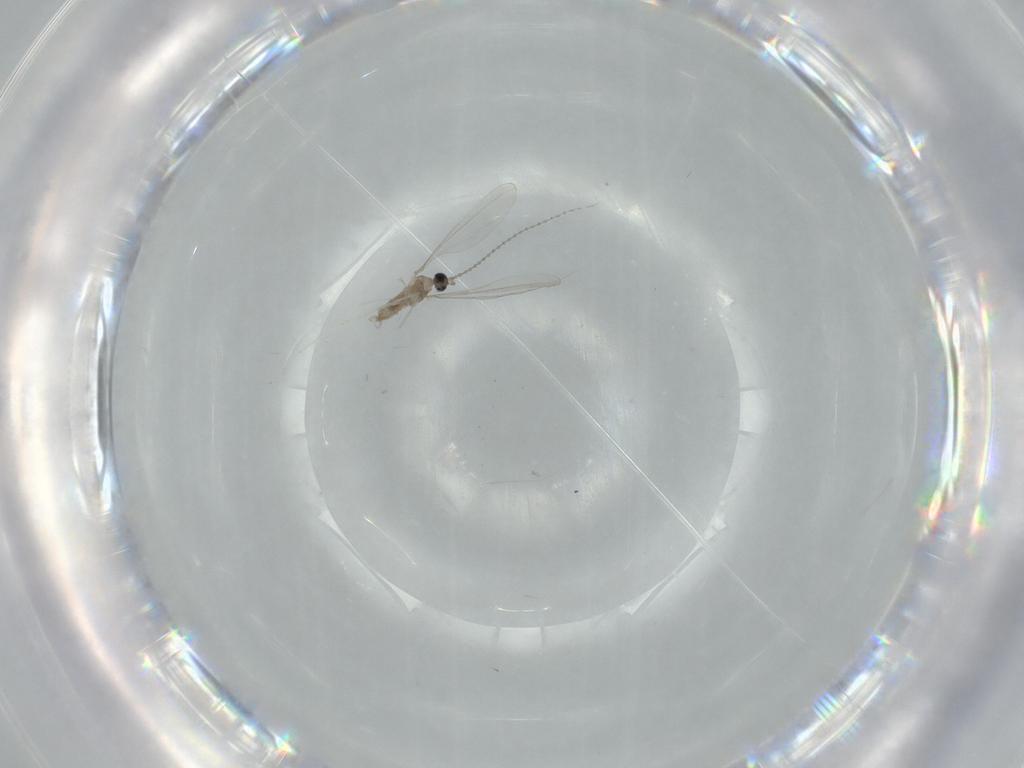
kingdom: Animalia
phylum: Arthropoda
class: Insecta
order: Diptera
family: Cecidomyiidae
